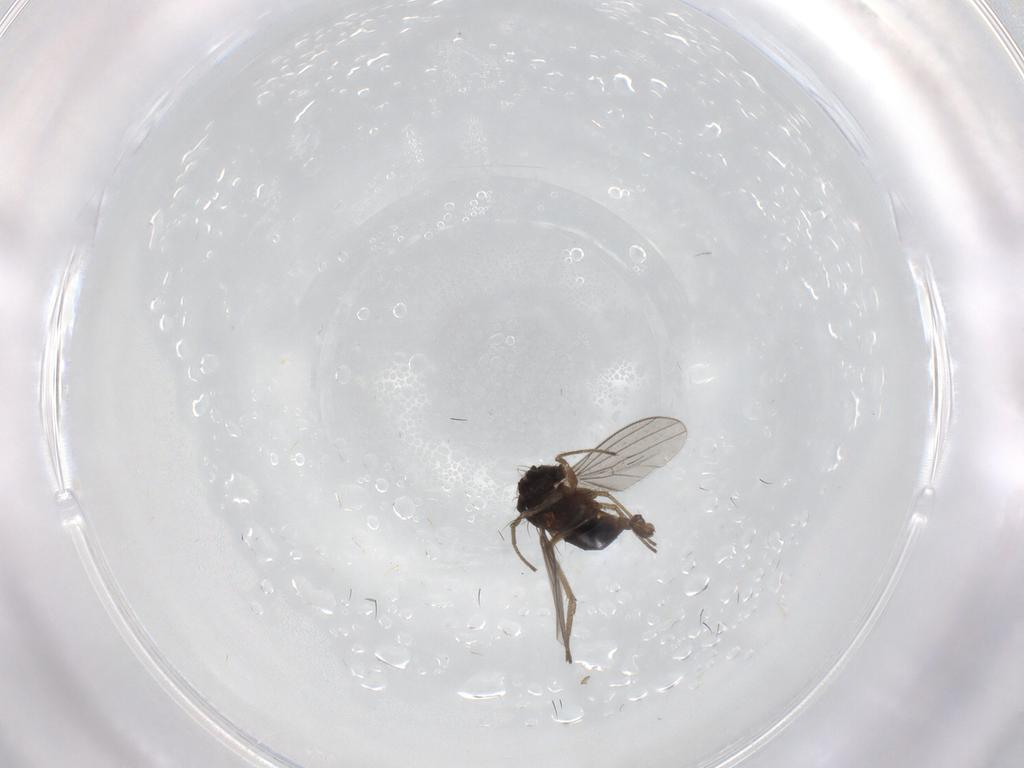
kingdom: Animalia
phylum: Arthropoda
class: Insecta
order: Diptera
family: Dolichopodidae
